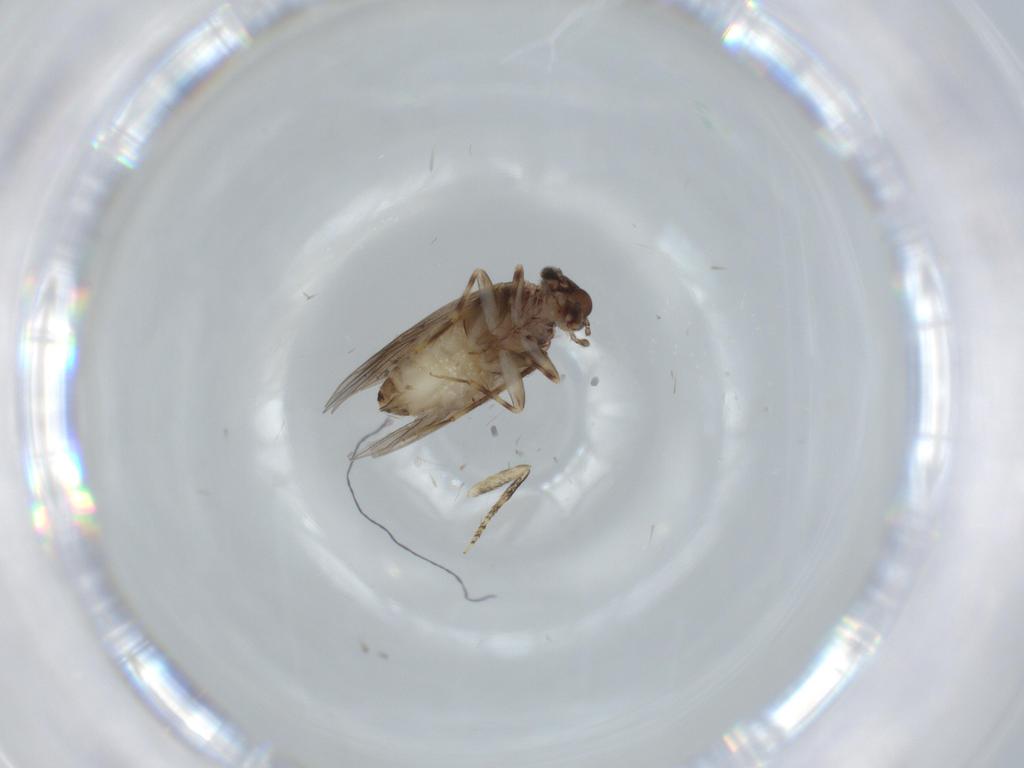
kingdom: Animalia
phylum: Arthropoda
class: Insecta
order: Psocodea
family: Lepidopsocidae
